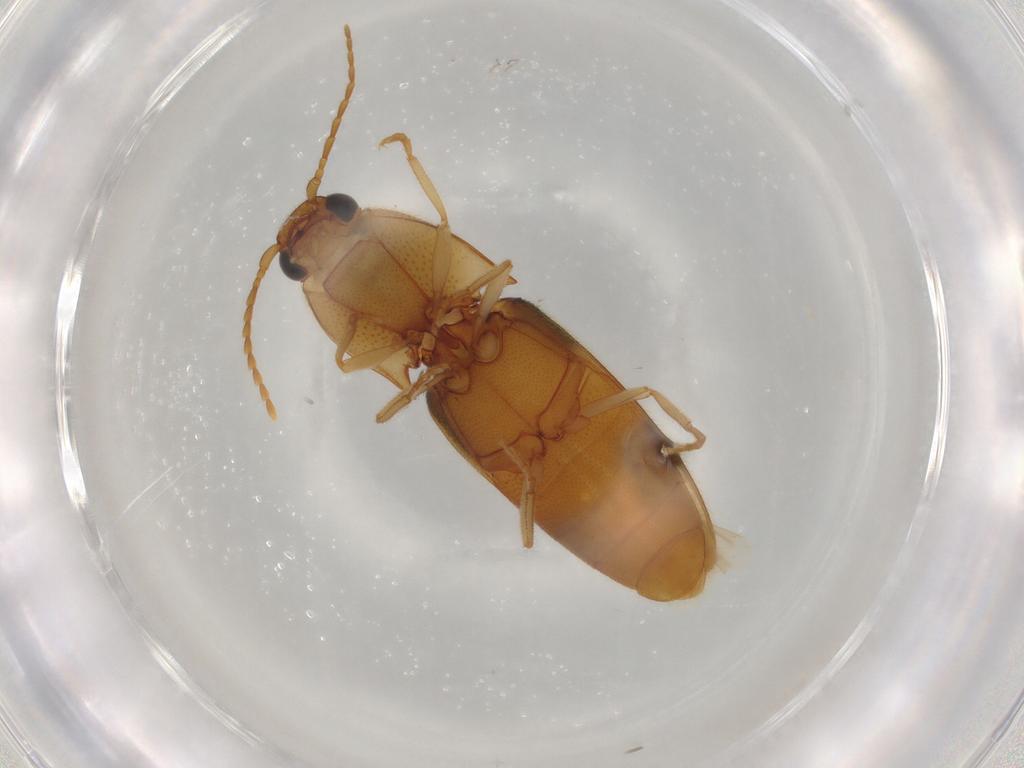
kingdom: Animalia
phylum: Arthropoda
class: Insecta
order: Coleoptera
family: Elateridae
